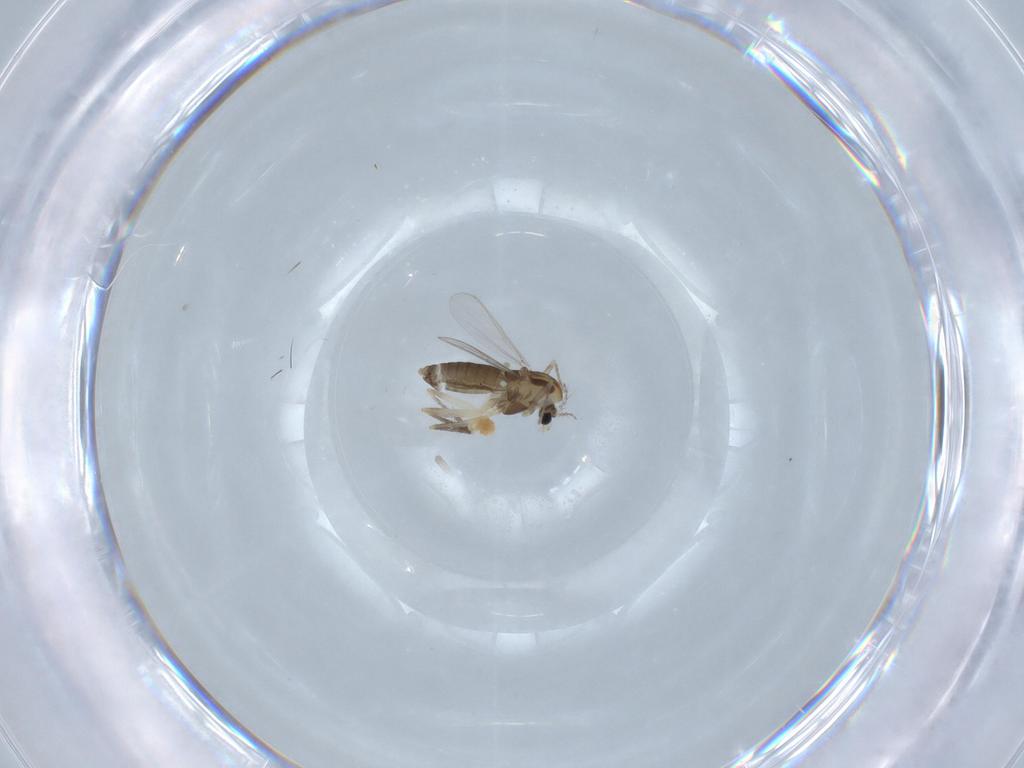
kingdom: Animalia
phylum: Arthropoda
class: Insecta
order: Diptera
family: Chironomidae
